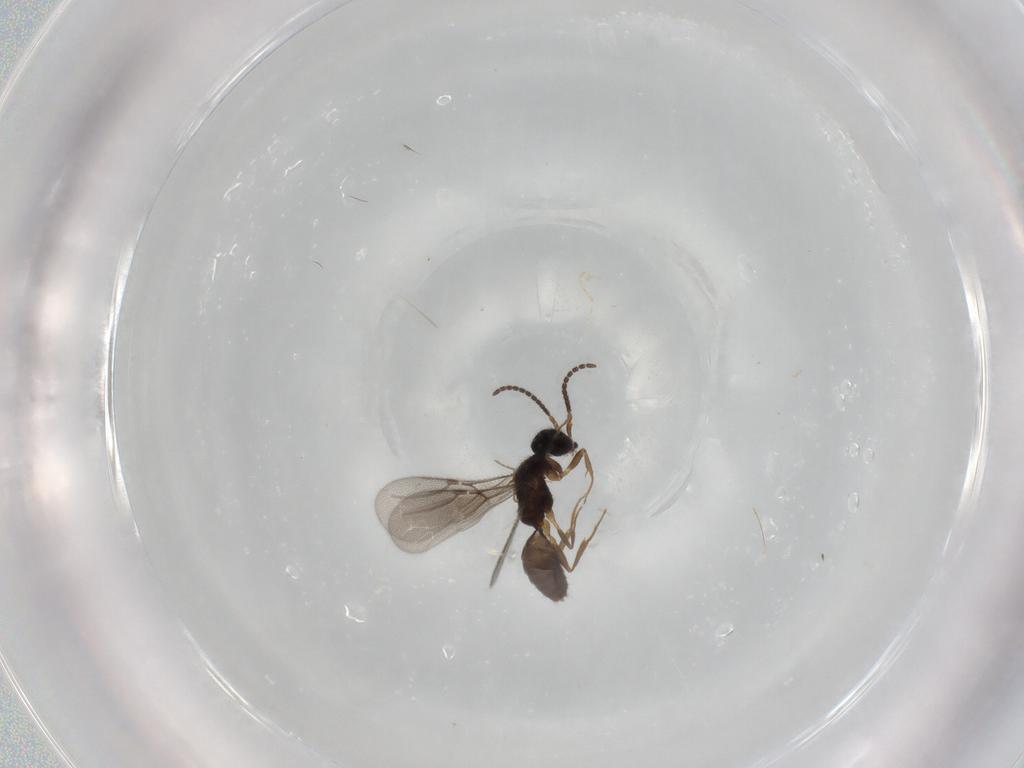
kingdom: Animalia
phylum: Arthropoda
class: Insecta
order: Hymenoptera
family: Bethylidae
